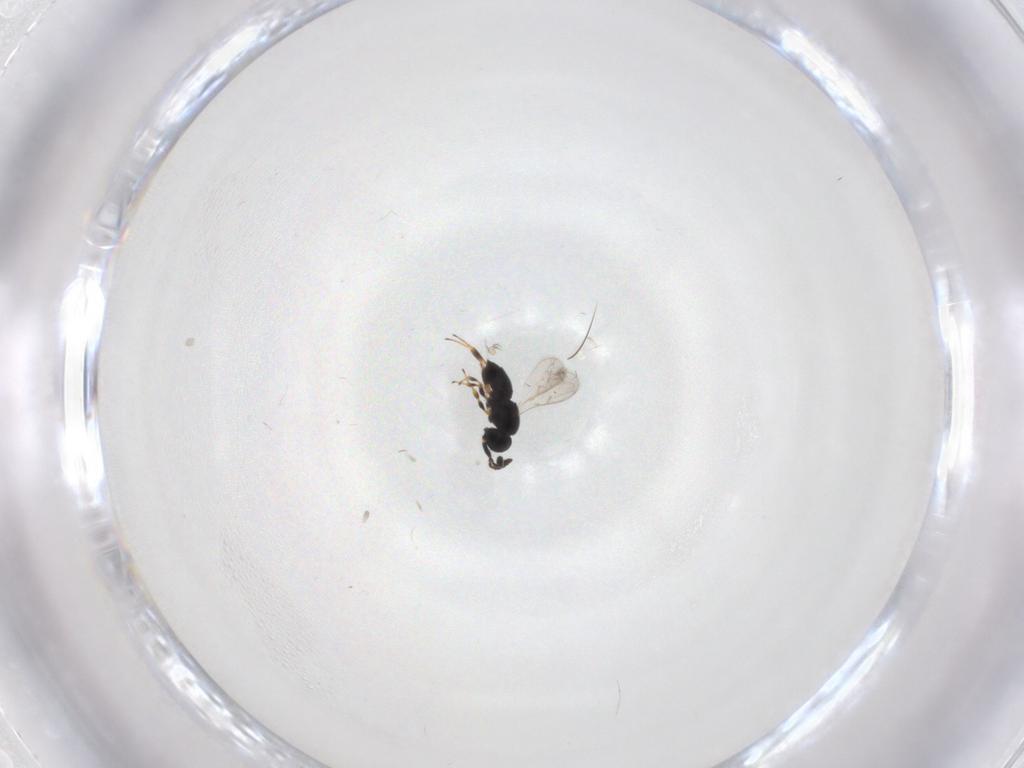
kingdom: Animalia
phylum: Arthropoda
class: Insecta
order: Hymenoptera
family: Scelionidae
